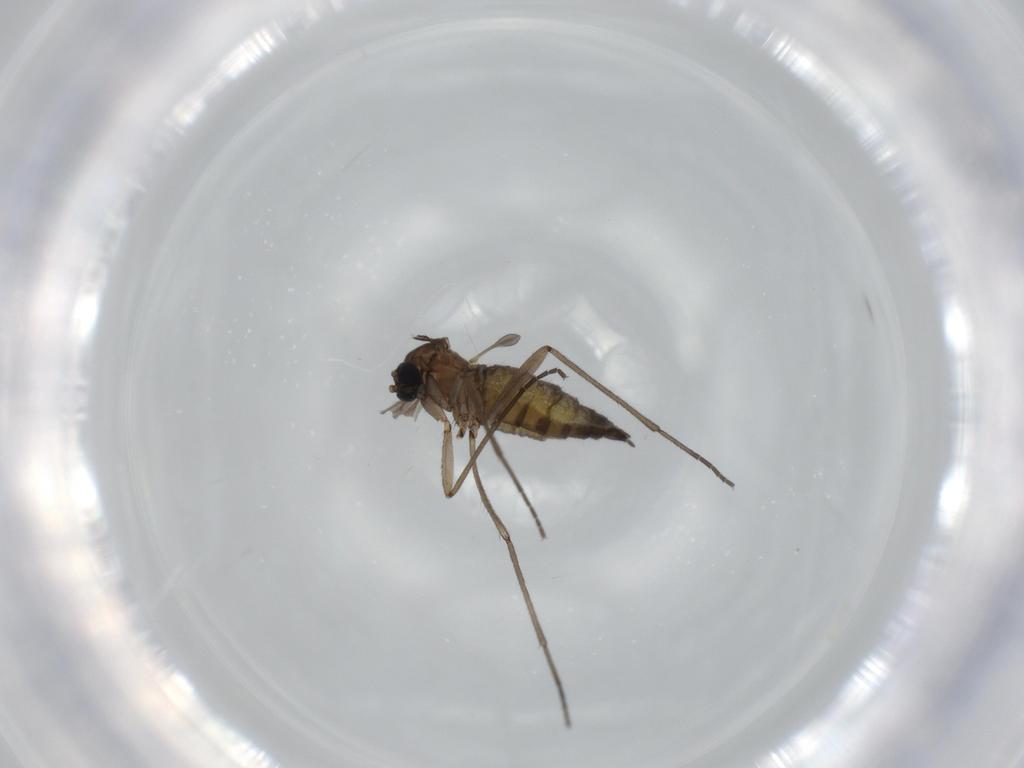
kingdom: Animalia
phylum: Arthropoda
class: Insecta
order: Diptera
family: Sciaridae
